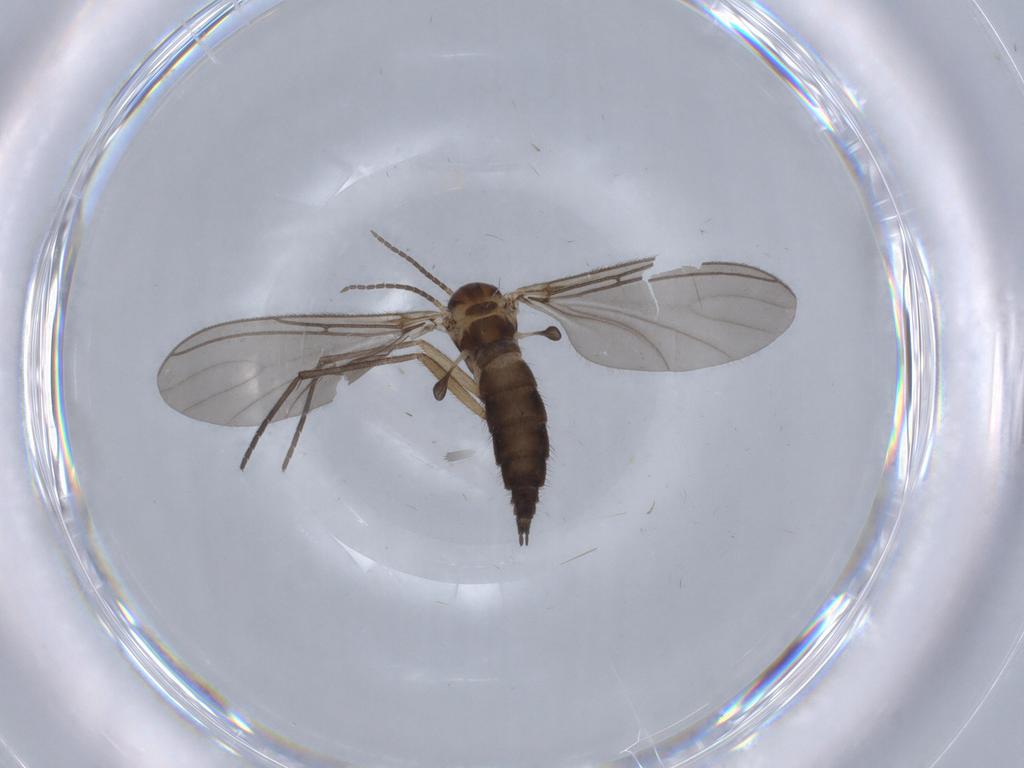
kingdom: Animalia
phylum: Arthropoda
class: Insecta
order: Diptera
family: Sciaridae
